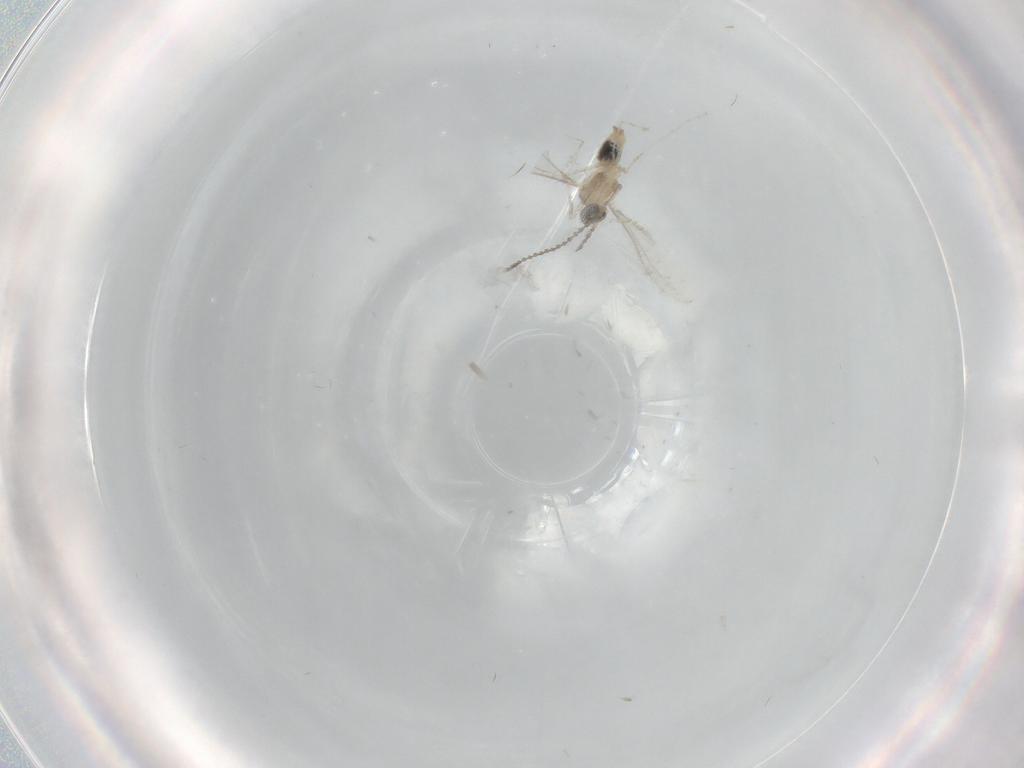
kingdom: Animalia
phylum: Arthropoda
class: Insecta
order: Diptera
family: Cecidomyiidae
